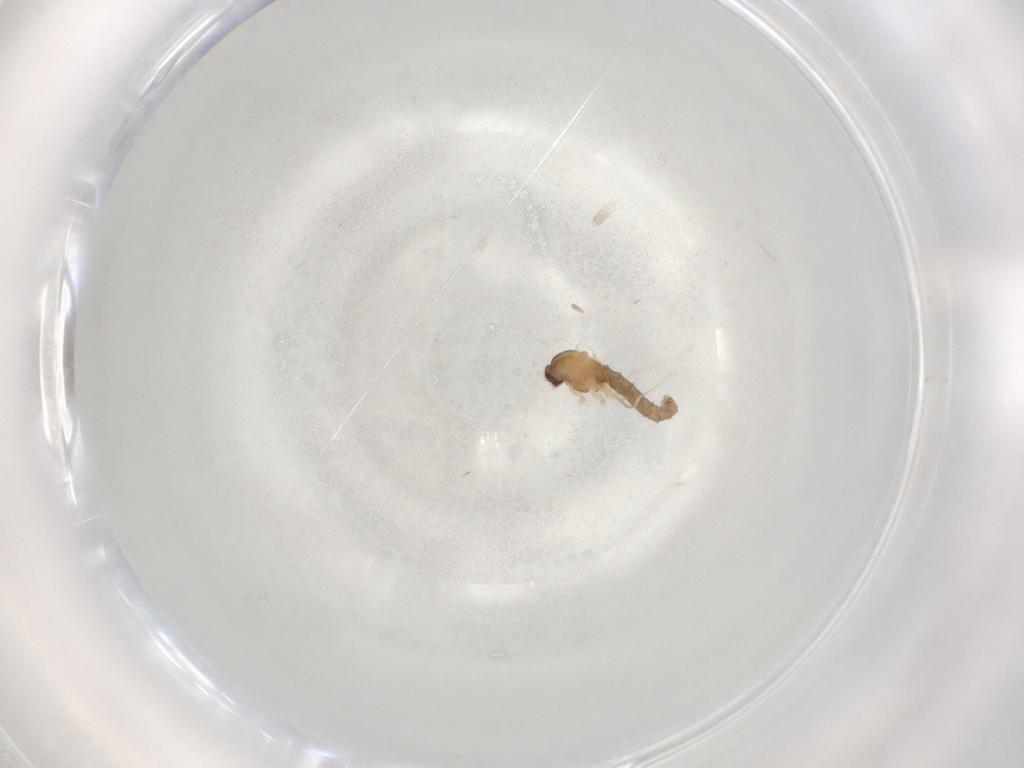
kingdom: Animalia
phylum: Arthropoda
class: Insecta
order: Diptera
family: Cecidomyiidae
